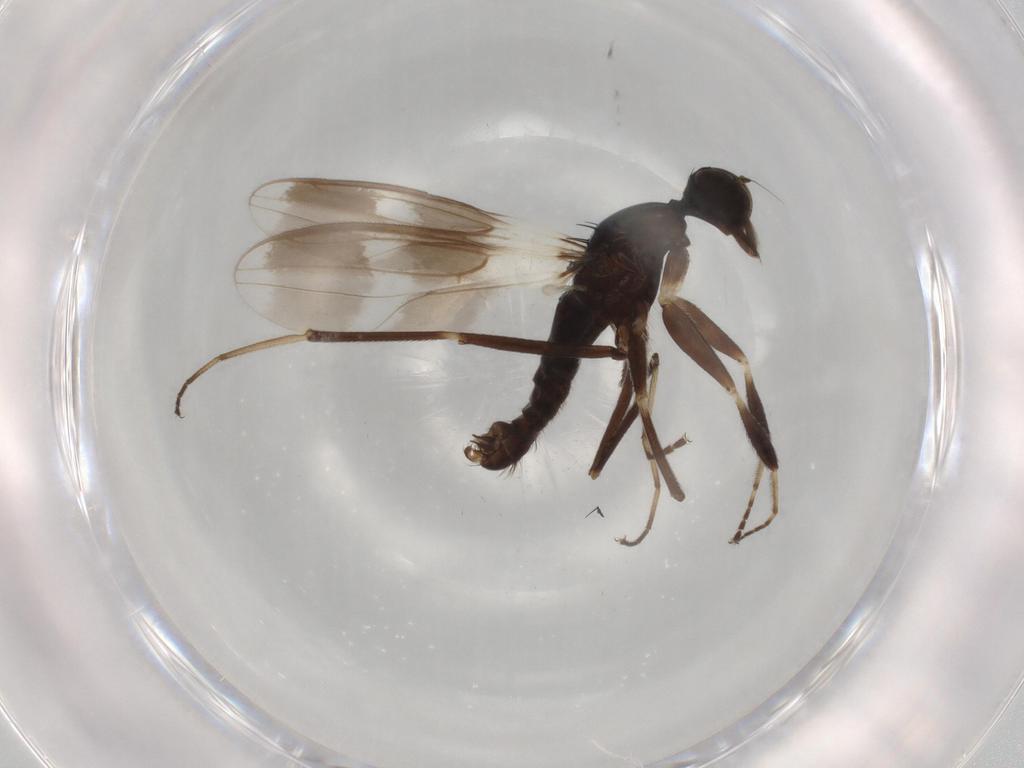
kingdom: Animalia
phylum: Arthropoda
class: Insecta
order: Diptera
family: Hybotidae
